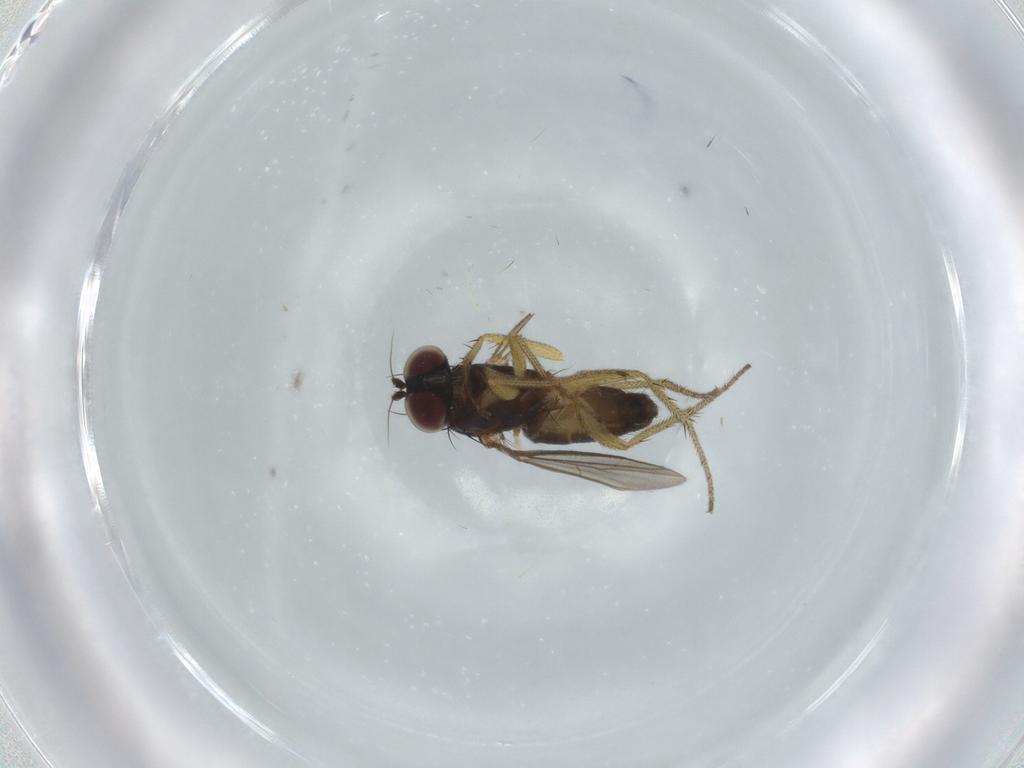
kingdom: Animalia
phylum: Arthropoda
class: Insecta
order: Diptera
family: Dolichopodidae
